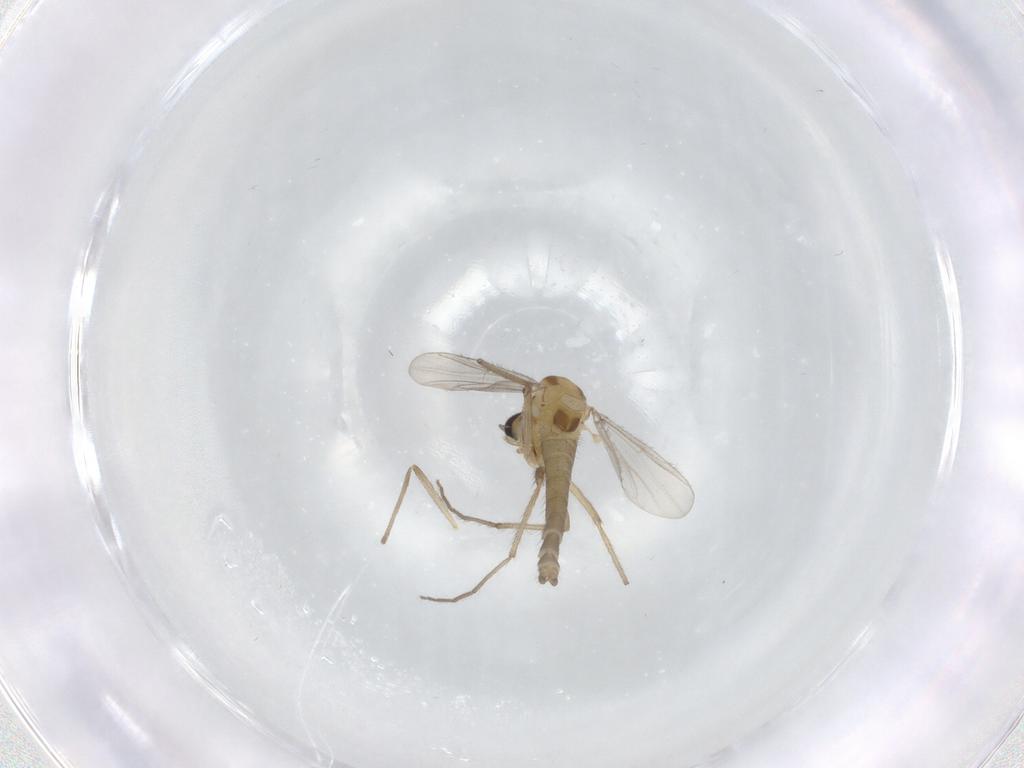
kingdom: Animalia
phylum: Arthropoda
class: Insecta
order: Diptera
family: Chironomidae
